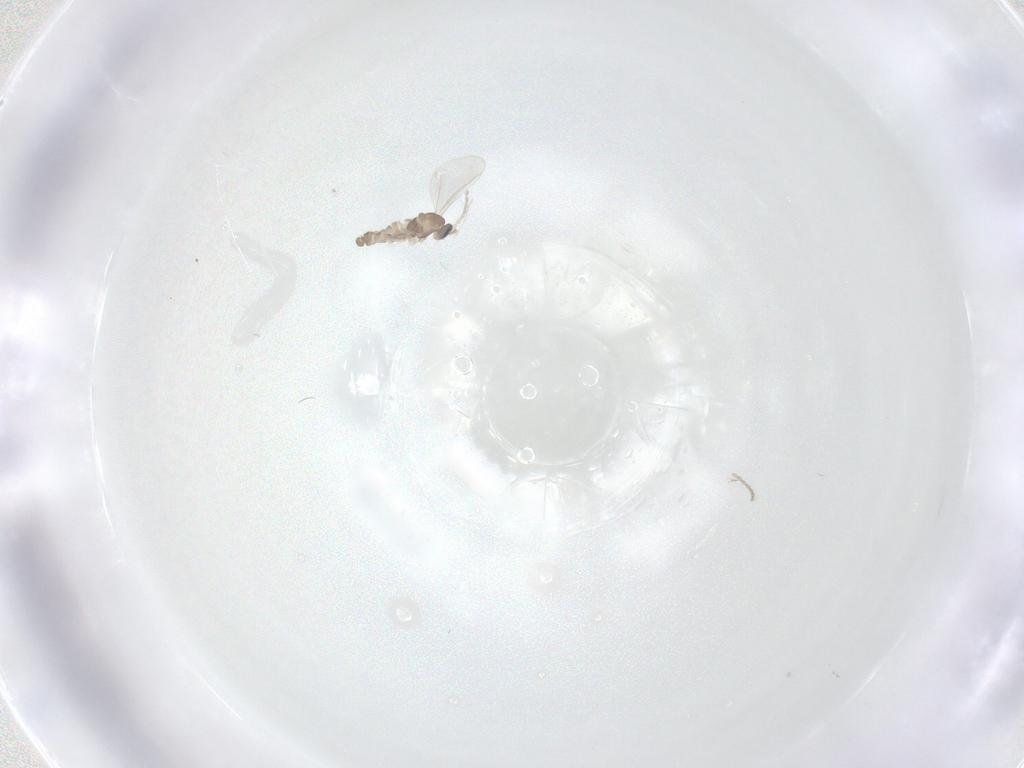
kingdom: Animalia
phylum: Arthropoda
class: Insecta
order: Diptera
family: Cecidomyiidae
